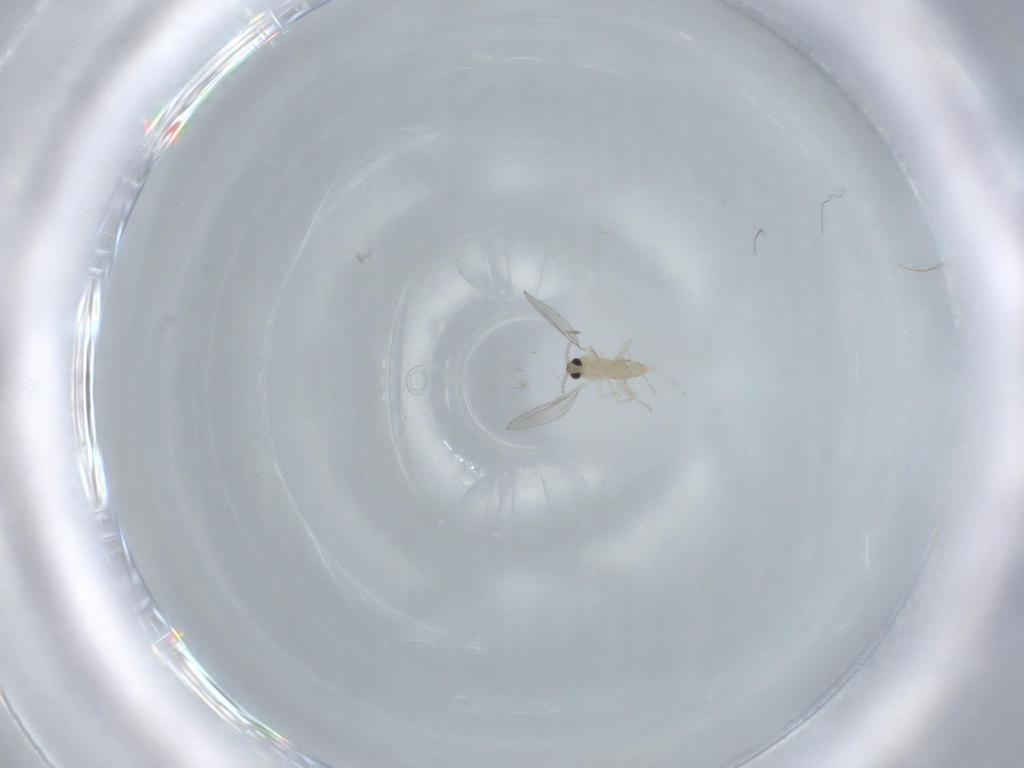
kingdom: Animalia
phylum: Arthropoda
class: Insecta
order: Diptera
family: Cecidomyiidae
